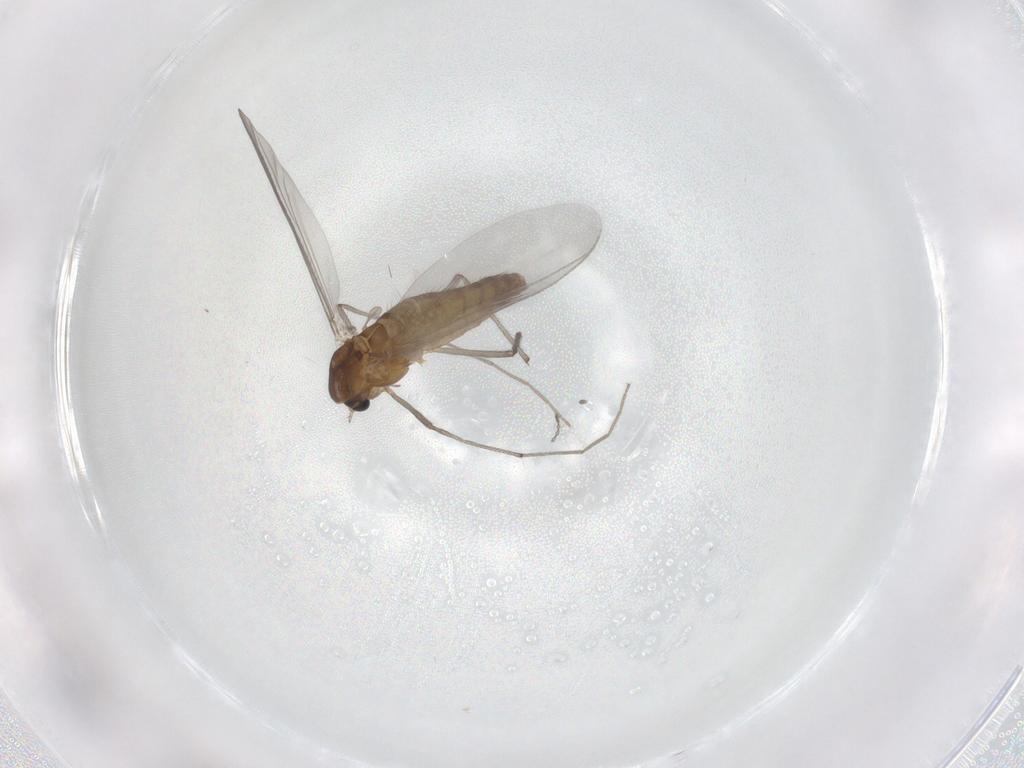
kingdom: Animalia
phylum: Arthropoda
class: Insecta
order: Diptera
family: Chironomidae
